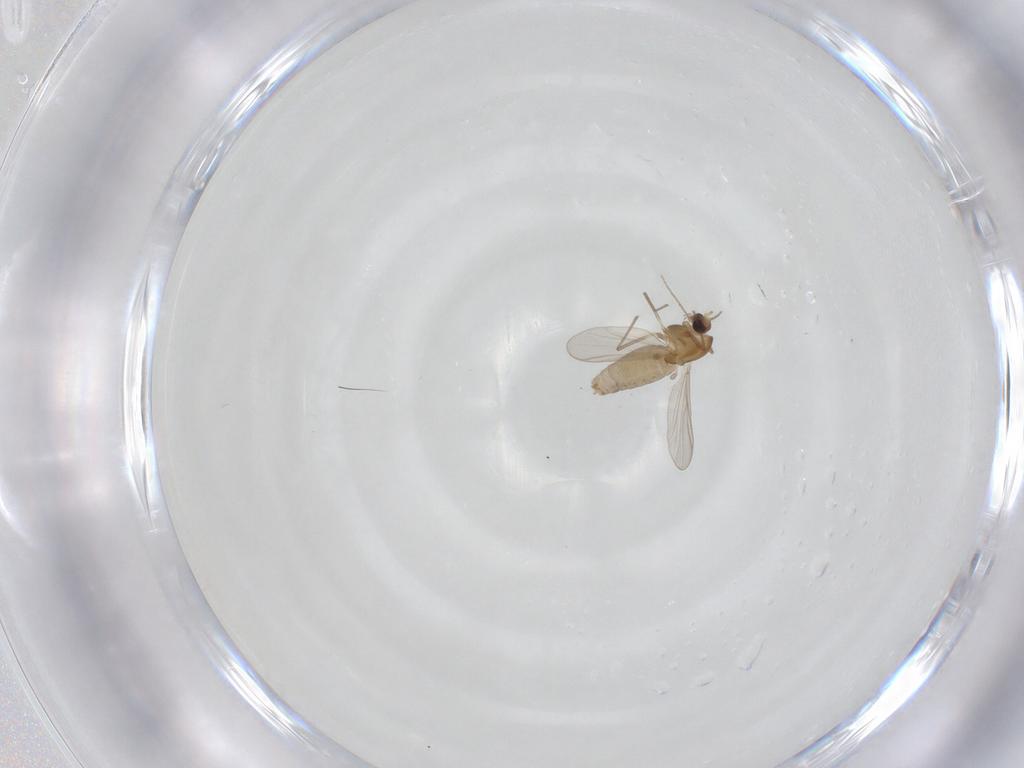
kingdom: Animalia
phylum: Arthropoda
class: Insecta
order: Diptera
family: Chironomidae
